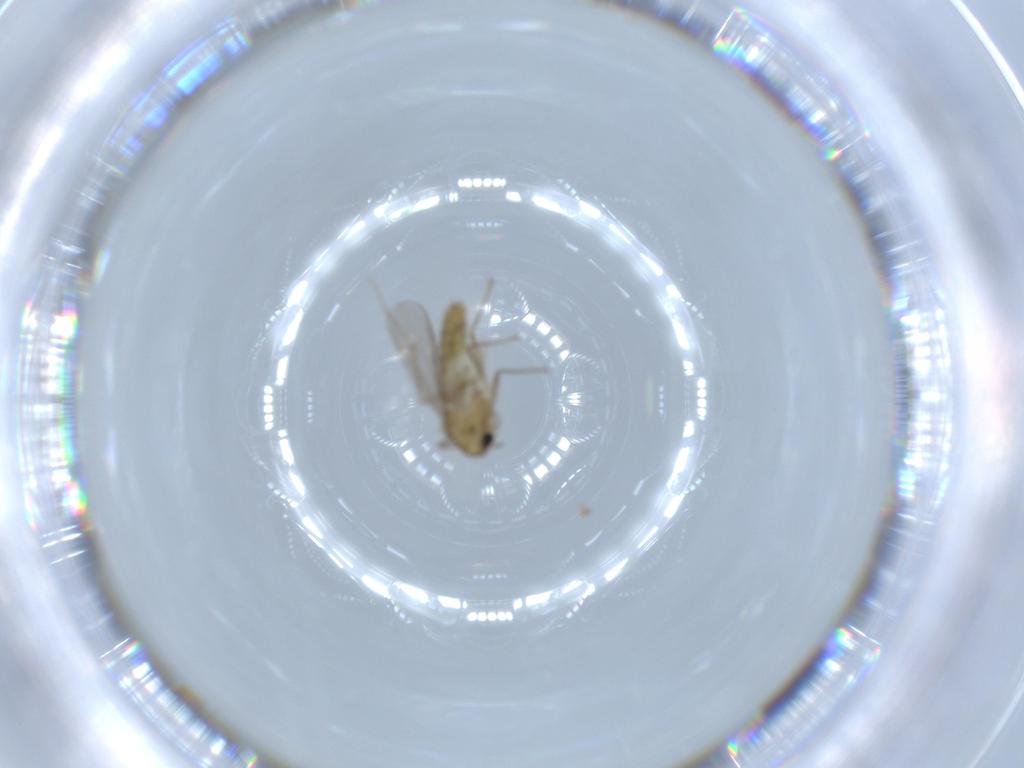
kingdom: Animalia
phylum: Arthropoda
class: Insecta
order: Diptera
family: Chironomidae
